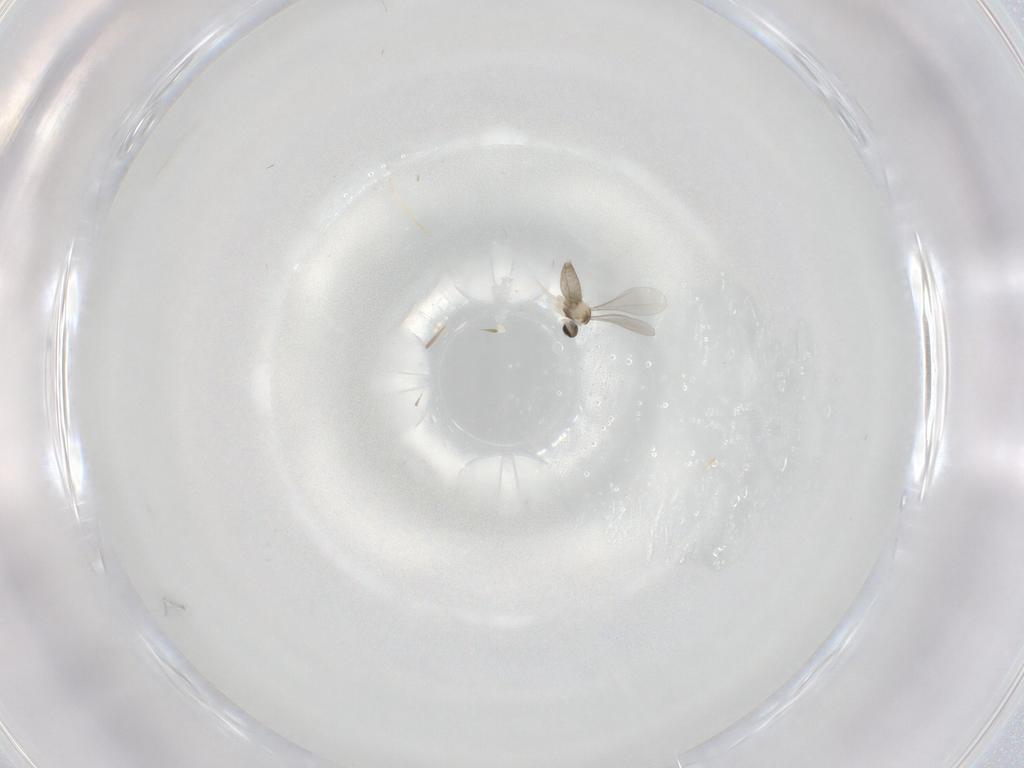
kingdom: Animalia
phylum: Arthropoda
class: Insecta
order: Diptera
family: Cecidomyiidae
